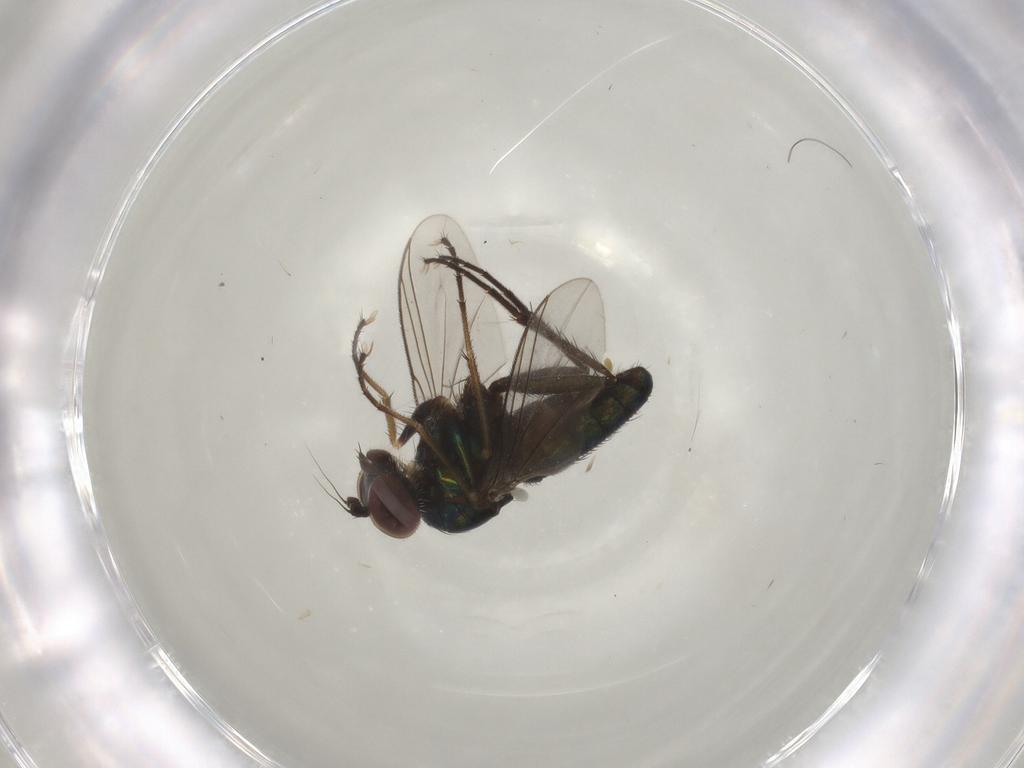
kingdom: Animalia
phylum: Arthropoda
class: Insecta
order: Diptera
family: Dolichopodidae
